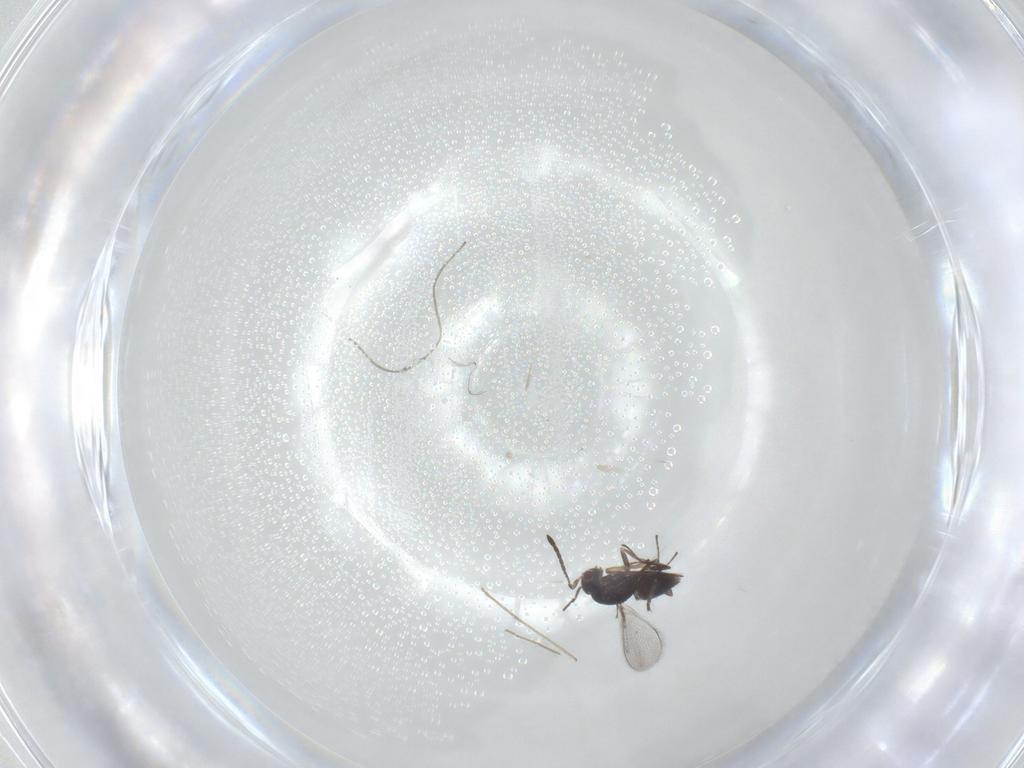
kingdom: Animalia
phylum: Arthropoda
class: Insecta
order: Hymenoptera
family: Mymaridae
